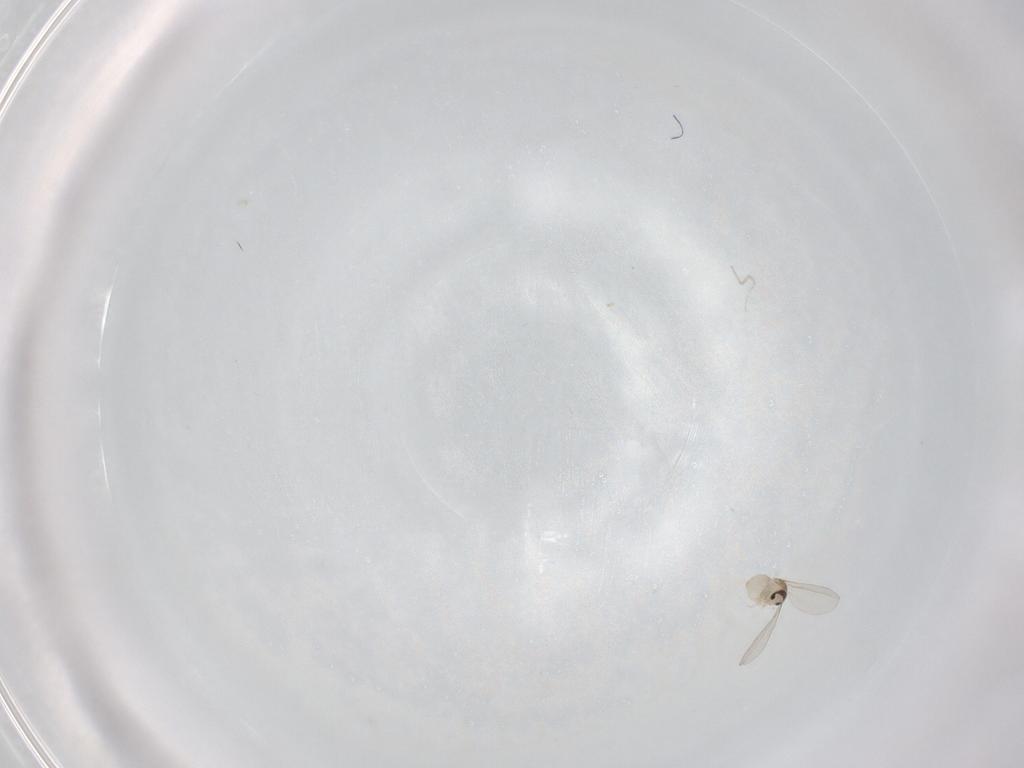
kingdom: Animalia
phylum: Arthropoda
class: Insecta
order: Diptera
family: Cecidomyiidae
